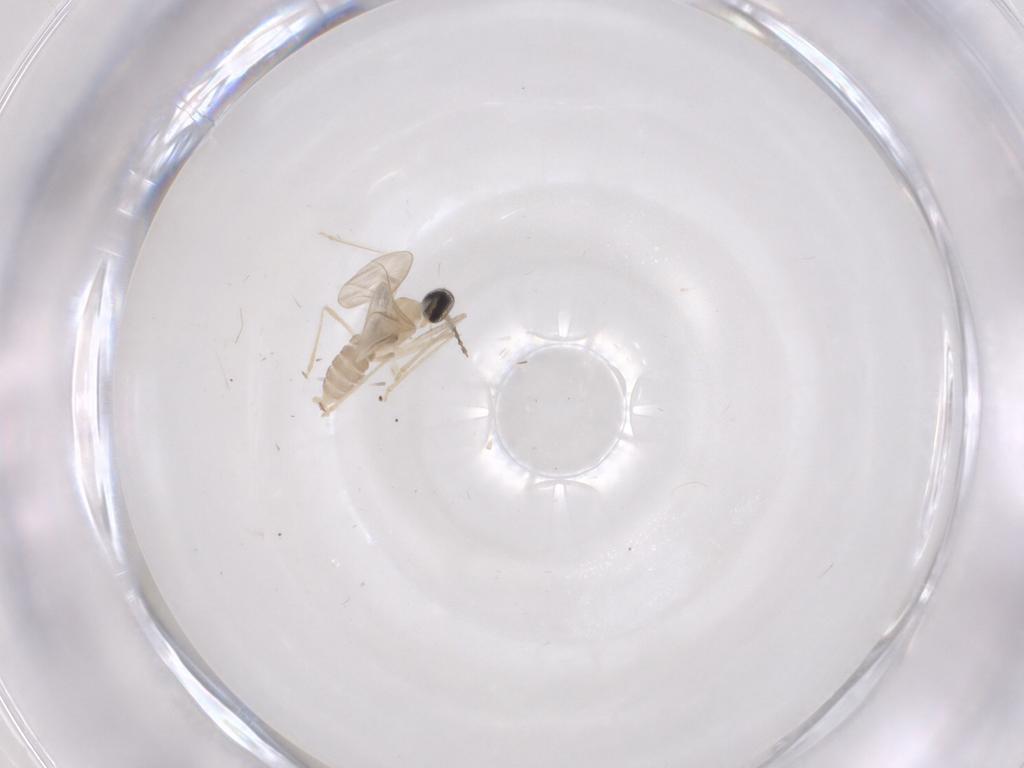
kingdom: Animalia
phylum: Arthropoda
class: Insecta
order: Diptera
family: Cecidomyiidae
